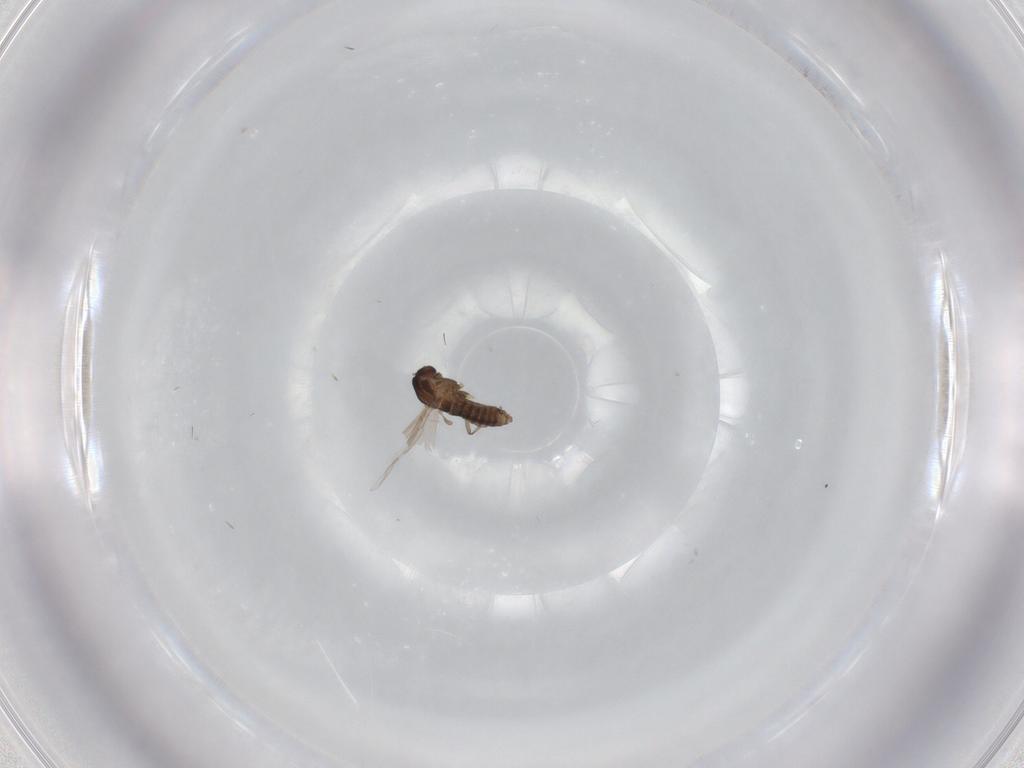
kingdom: Animalia
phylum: Arthropoda
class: Insecta
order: Diptera
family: Chironomidae
